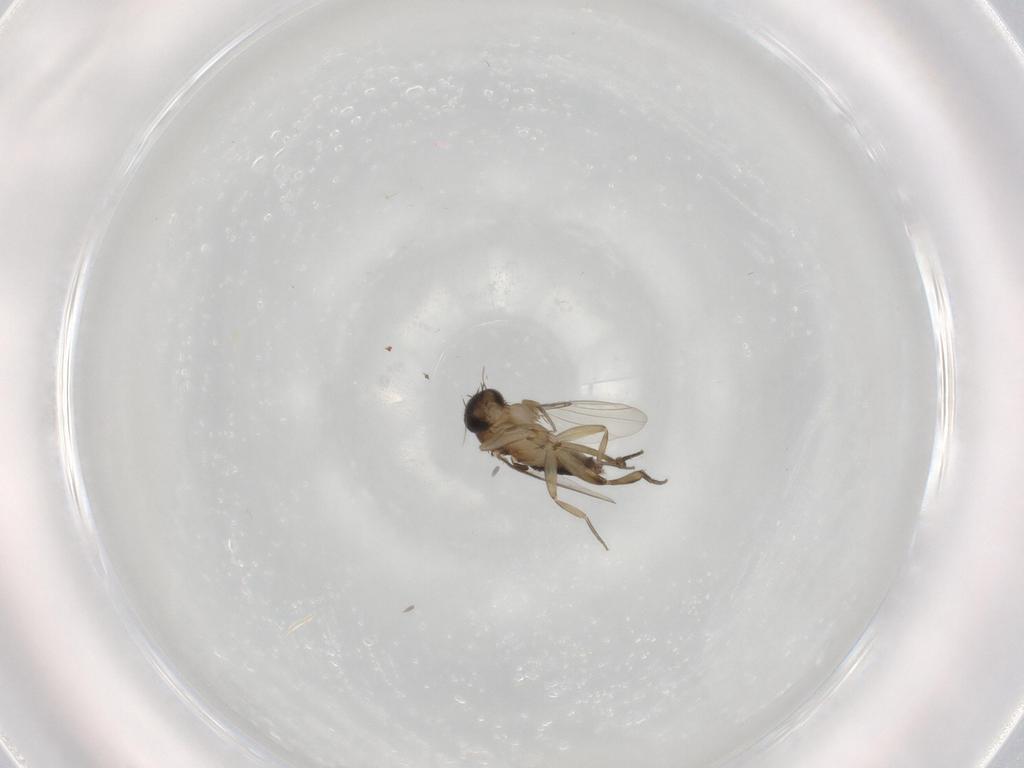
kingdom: Animalia
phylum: Arthropoda
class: Insecta
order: Diptera
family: Phoridae
